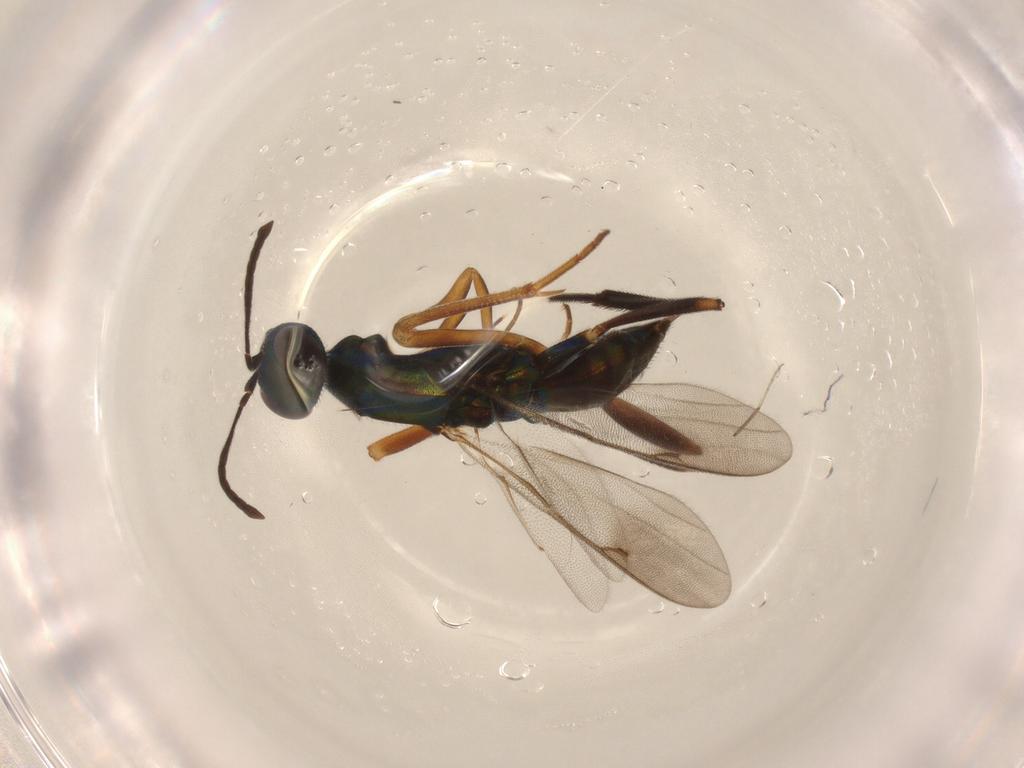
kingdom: Animalia
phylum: Arthropoda
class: Insecta
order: Hymenoptera
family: Metapelmatidae
